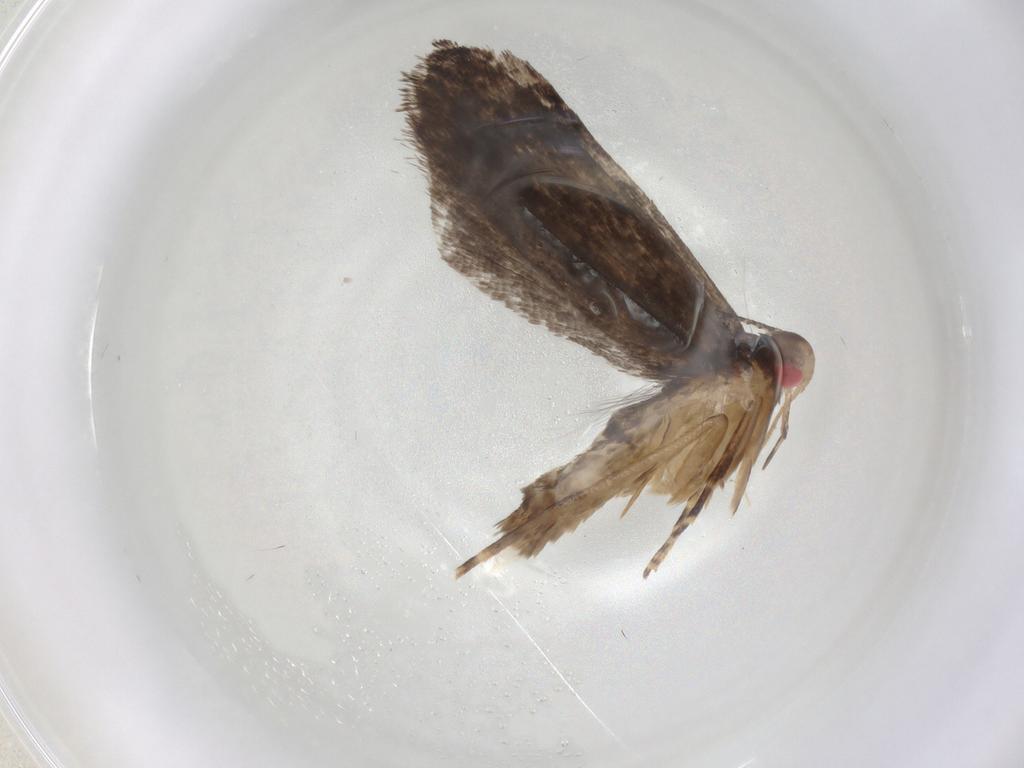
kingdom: Animalia
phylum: Arthropoda
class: Insecta
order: Lepidoptera
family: Gelechiidae
